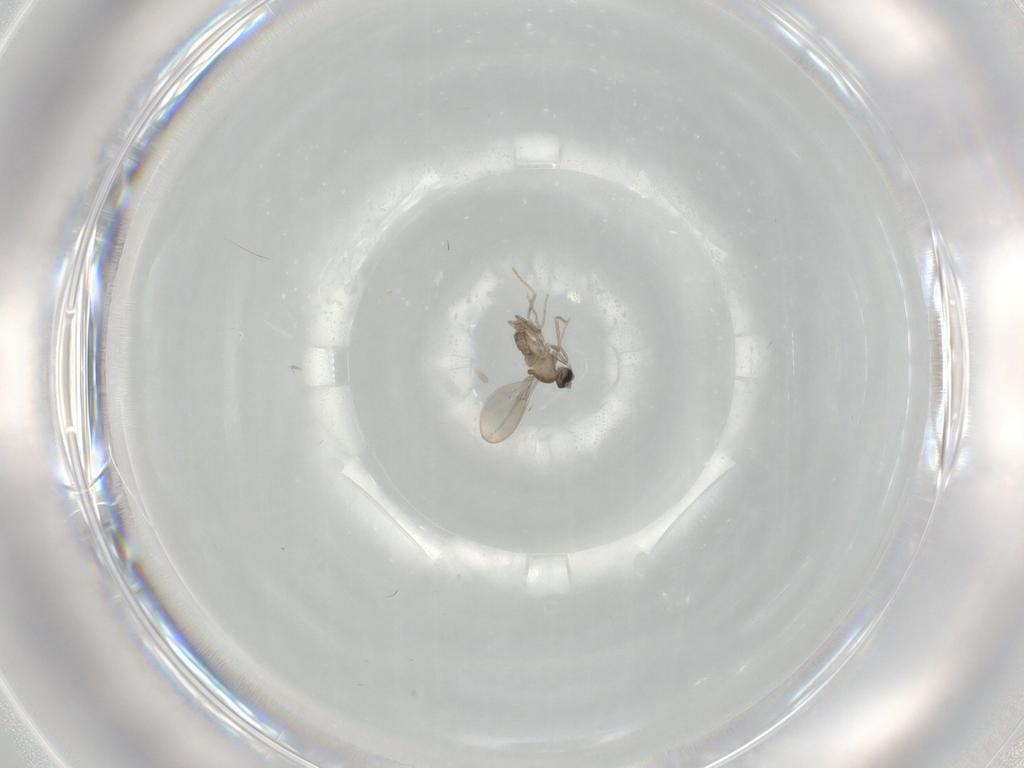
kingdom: Animalia
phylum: Arthropoda
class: Insecta
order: Diptera
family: Cecidomyiidae
